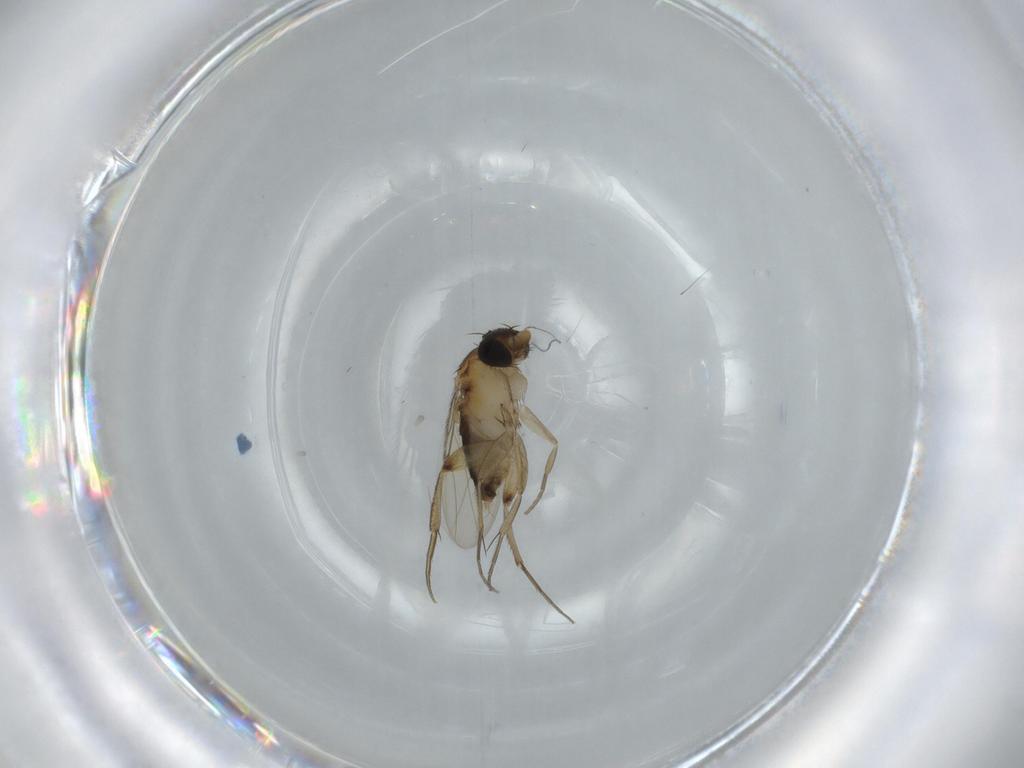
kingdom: Animalia
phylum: Arthropoda
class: Insecta
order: Diptera
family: Phoridae
